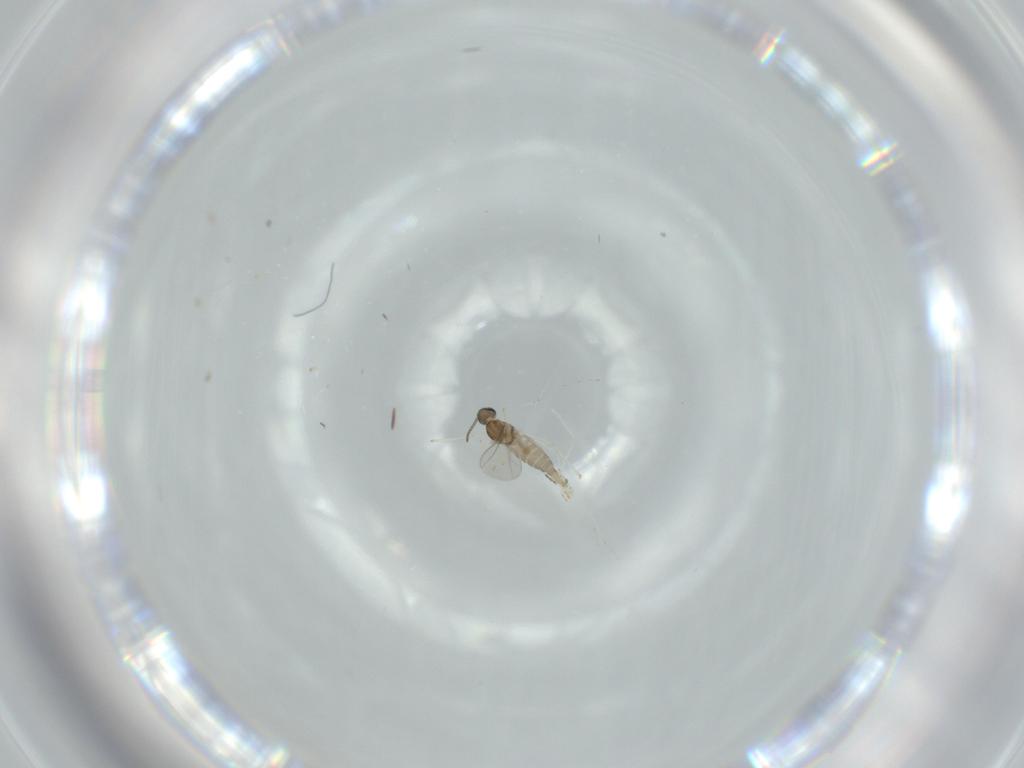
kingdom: Animalia
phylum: Arthropoda
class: Insecta
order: Diptera
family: Cecidomyiidae
